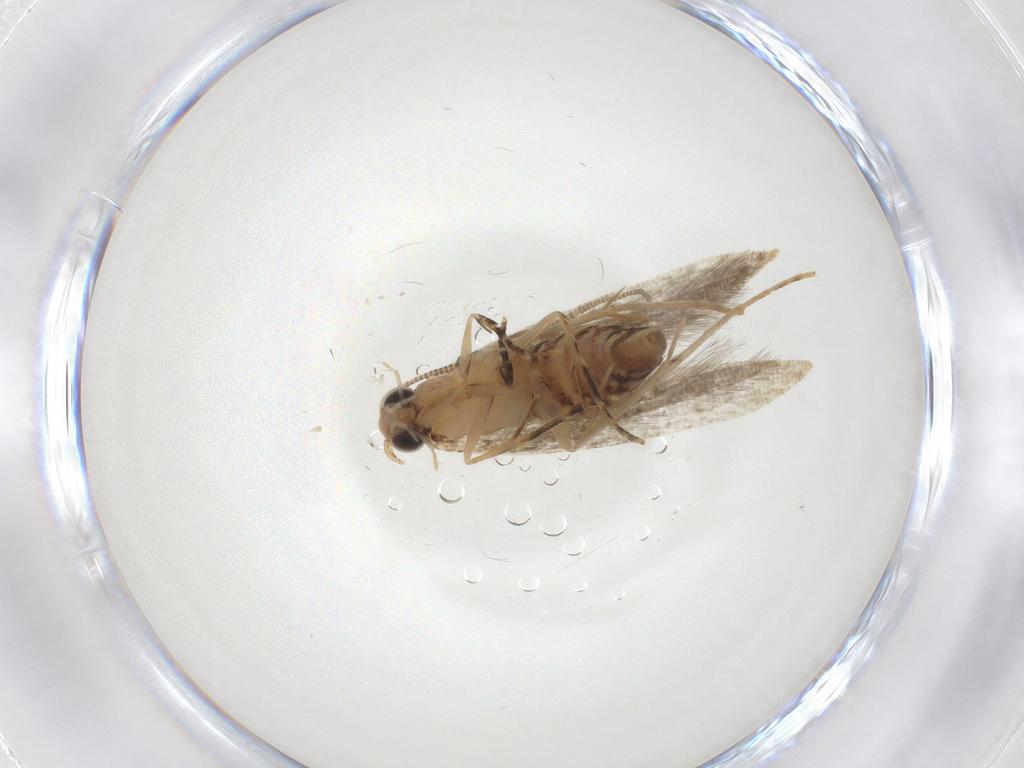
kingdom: Animalia
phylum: Arthropoda
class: Insecta
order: Lepidoptera
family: Tineidae
